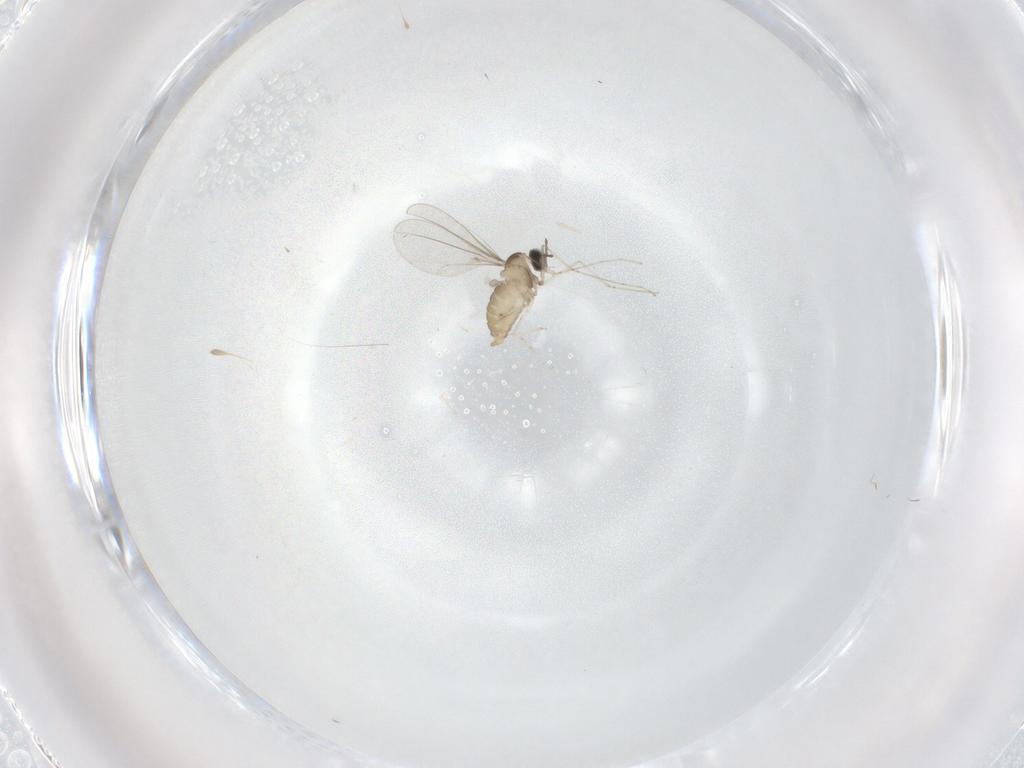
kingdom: Animalia
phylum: Arthropoda
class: Insecta
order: Diptera
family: Cecidomyiidae
